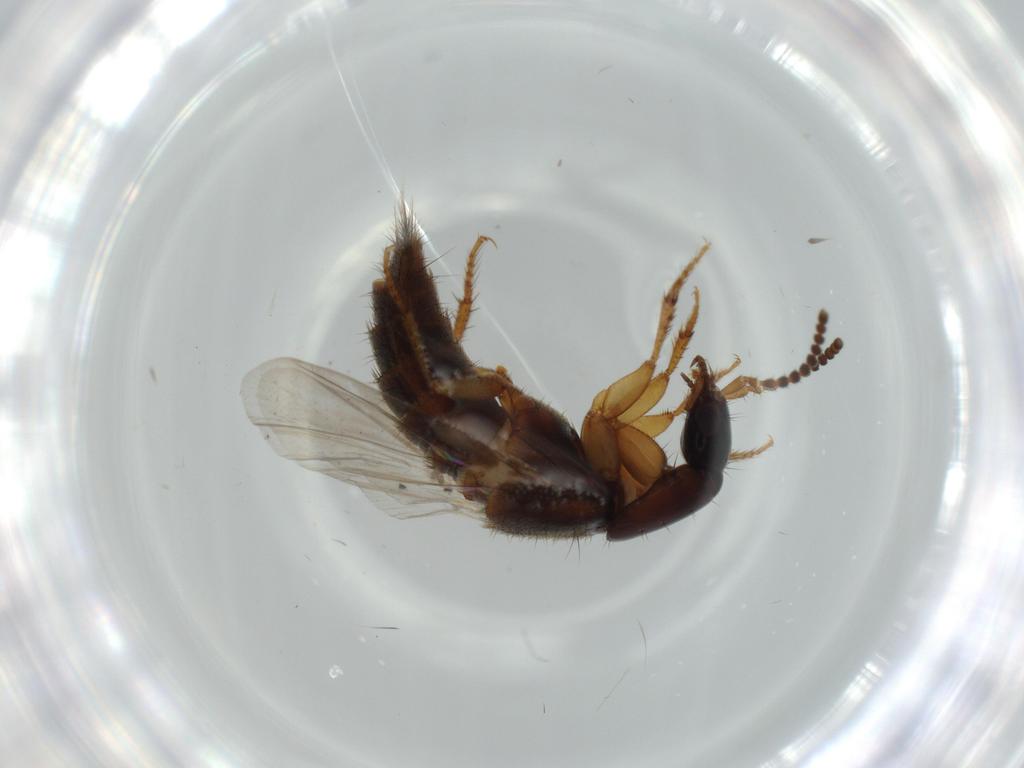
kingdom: Animalia
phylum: Arthropoda
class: Insecta
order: Coleoptera
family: Staphylinidae
